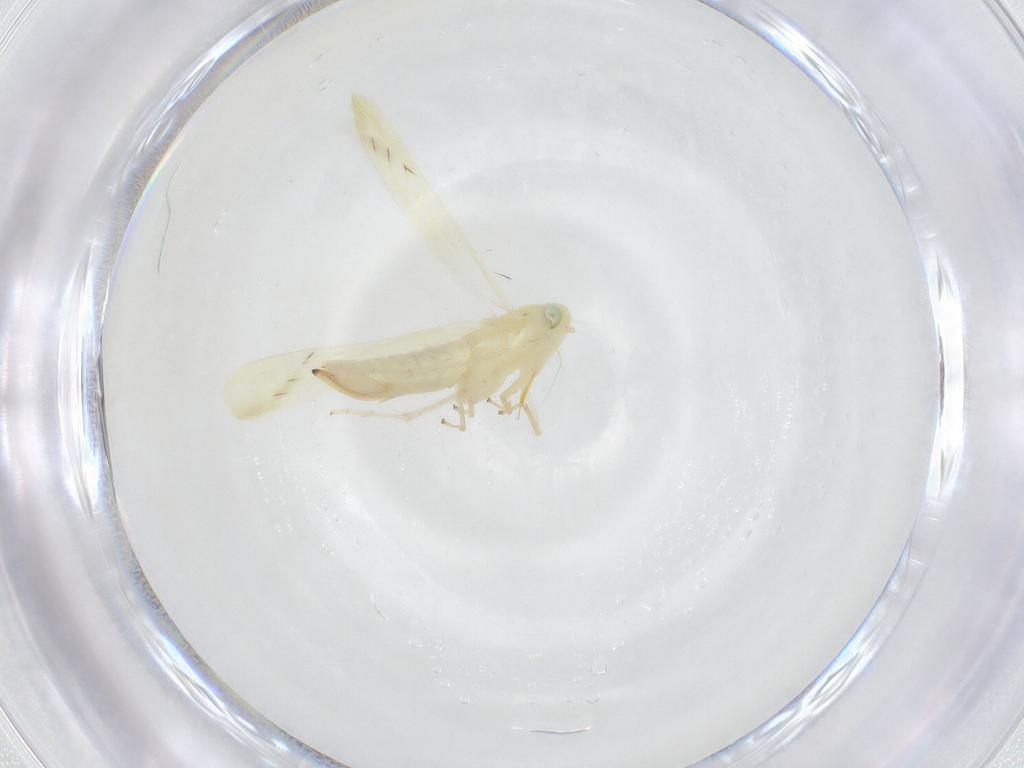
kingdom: Animalia
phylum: Arthropoda
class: Insecta
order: Hemiptera
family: Cicadellidae
